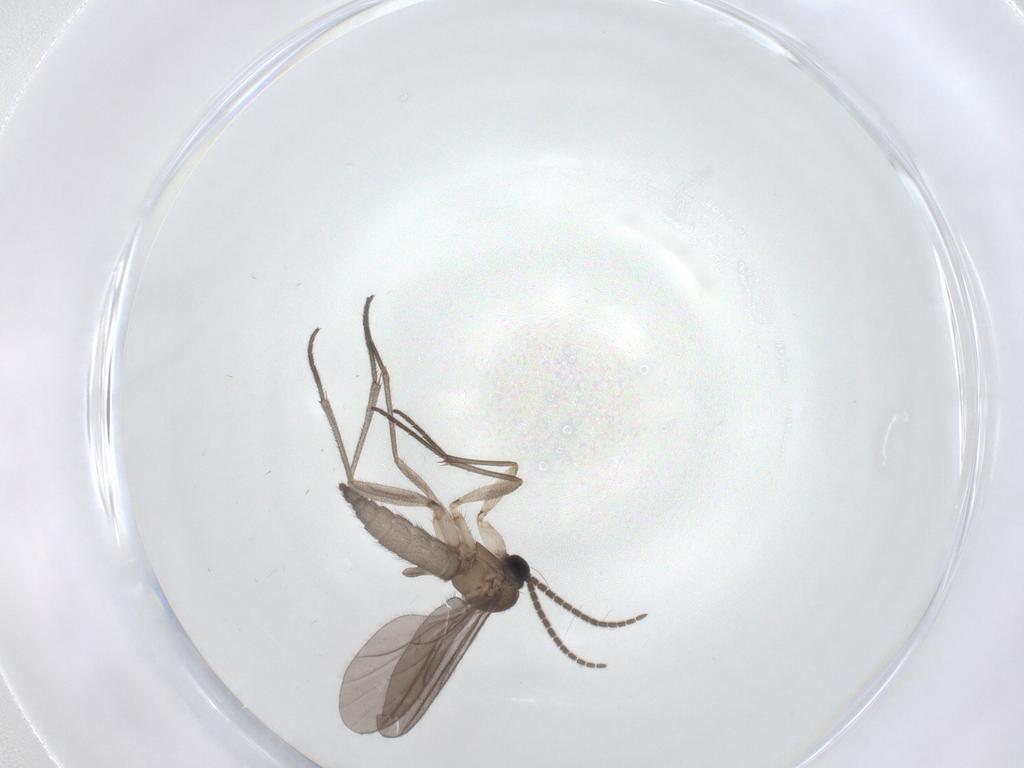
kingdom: Animalia
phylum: Arthropoda
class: Insecta
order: Diptera
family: Sciaridae
